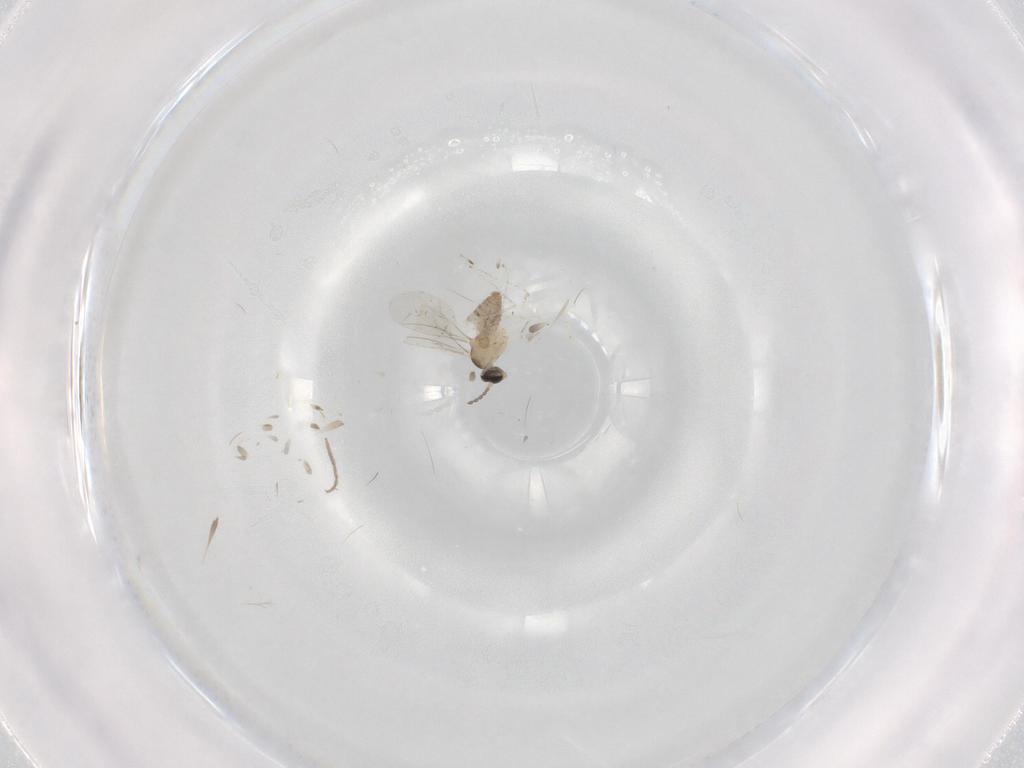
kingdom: Animalia
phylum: Arthropoda
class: Insecta
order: Diptera
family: Cecidomyiidae
